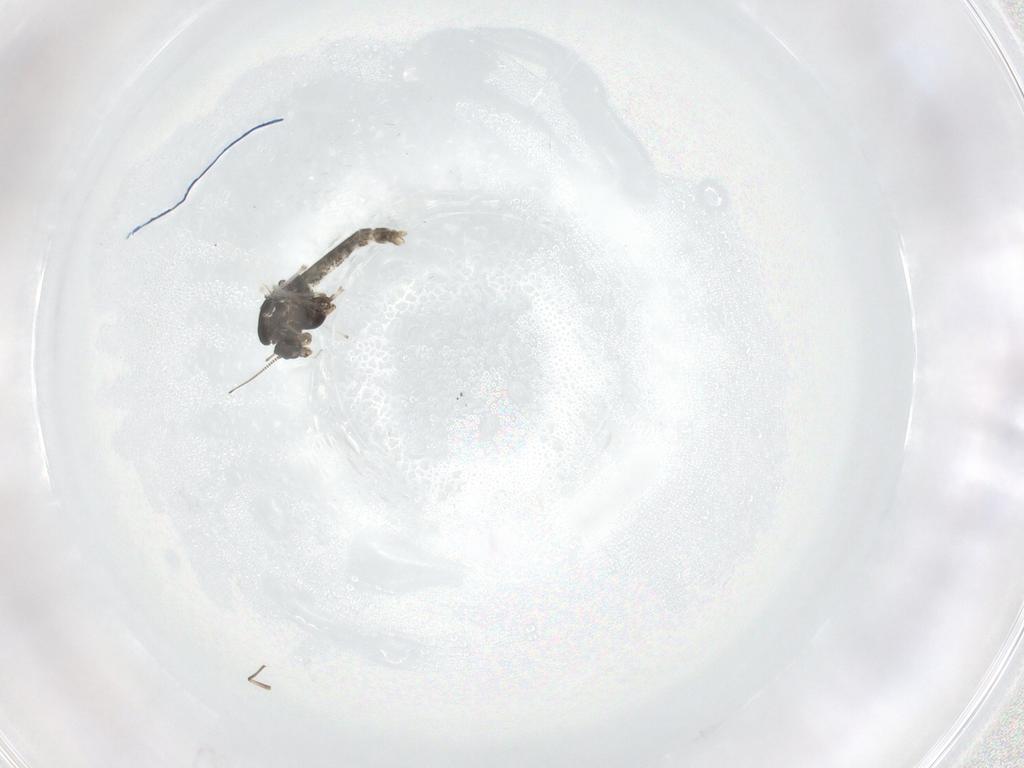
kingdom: Animalia
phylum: Arthropoda
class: Insecta
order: Diptera
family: Chironomidae
